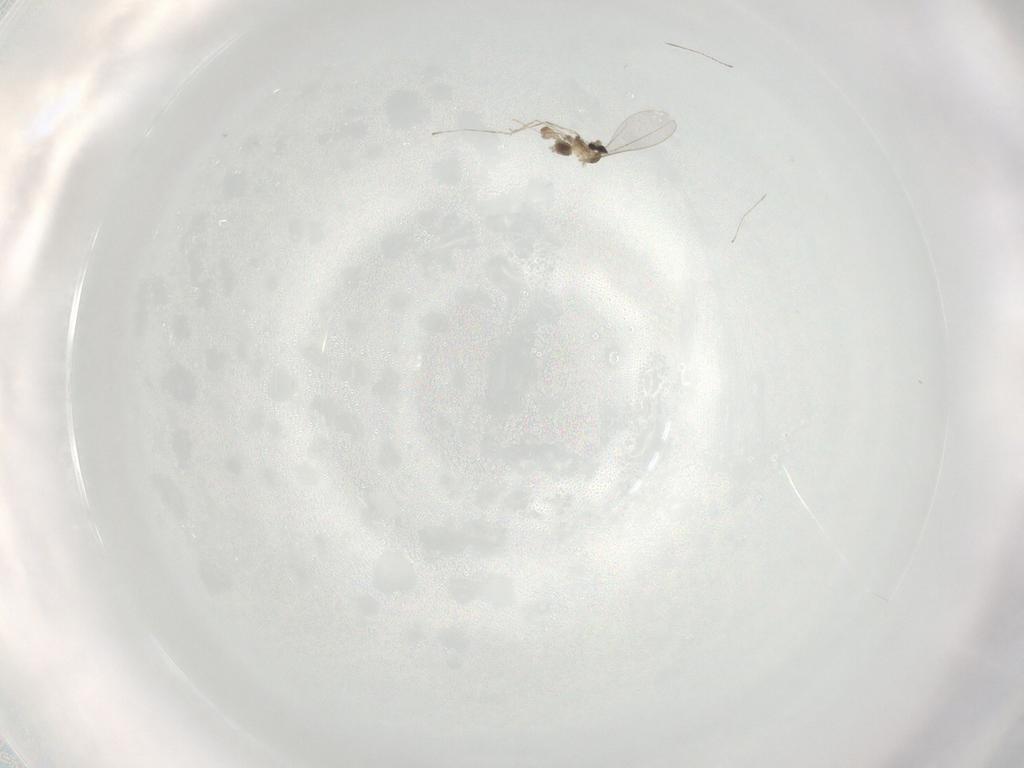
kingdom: Animalia
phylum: Arthropoda
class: Insecta
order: Diptera
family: Cecidomyiidae
